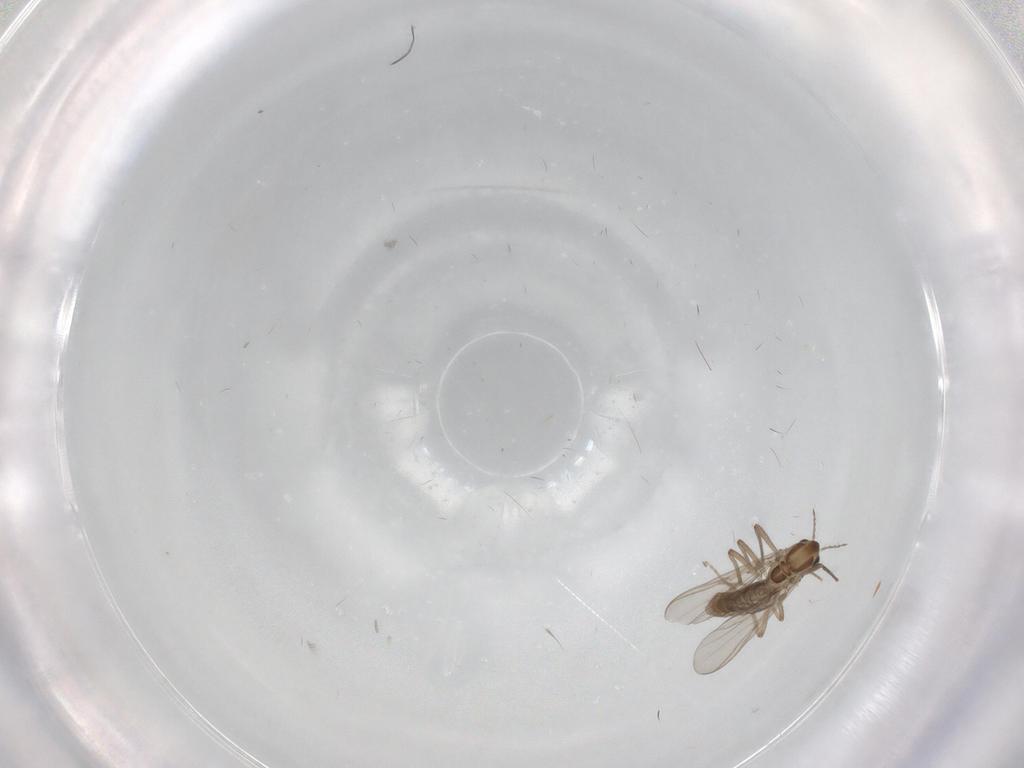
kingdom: Animalia
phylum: Arthropoda
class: Insecta
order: Diptera
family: Chironomidae
